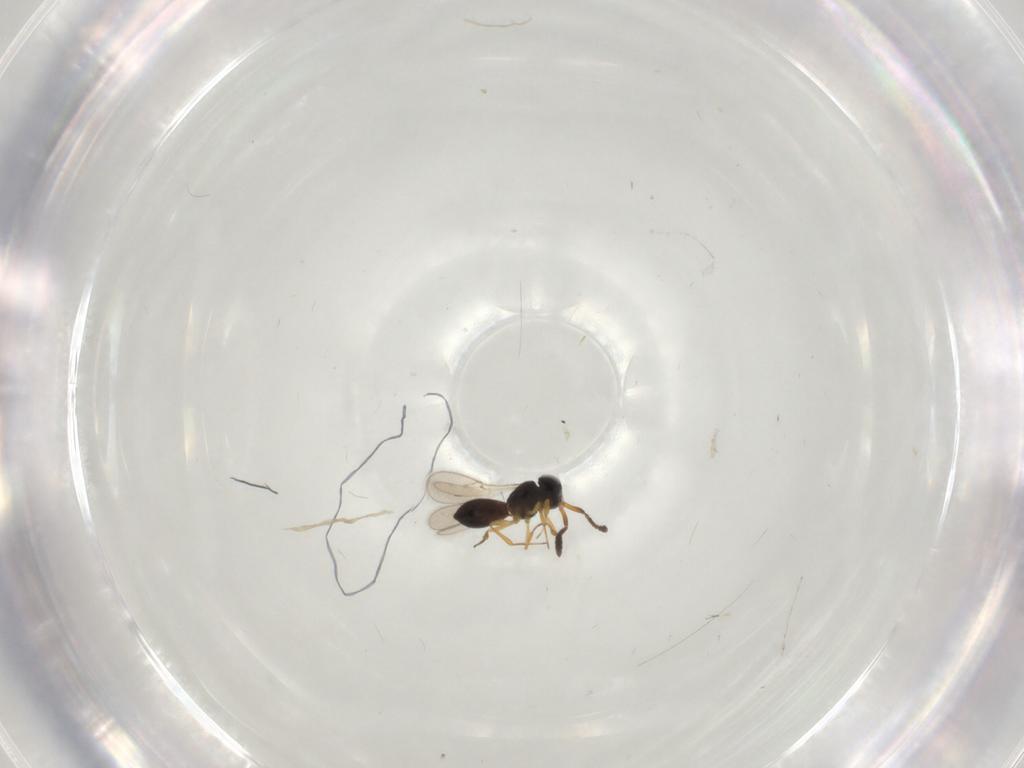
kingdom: Animalia
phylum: Arthropoda
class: Insecta
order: Hymenoptera
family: Scelionidae
